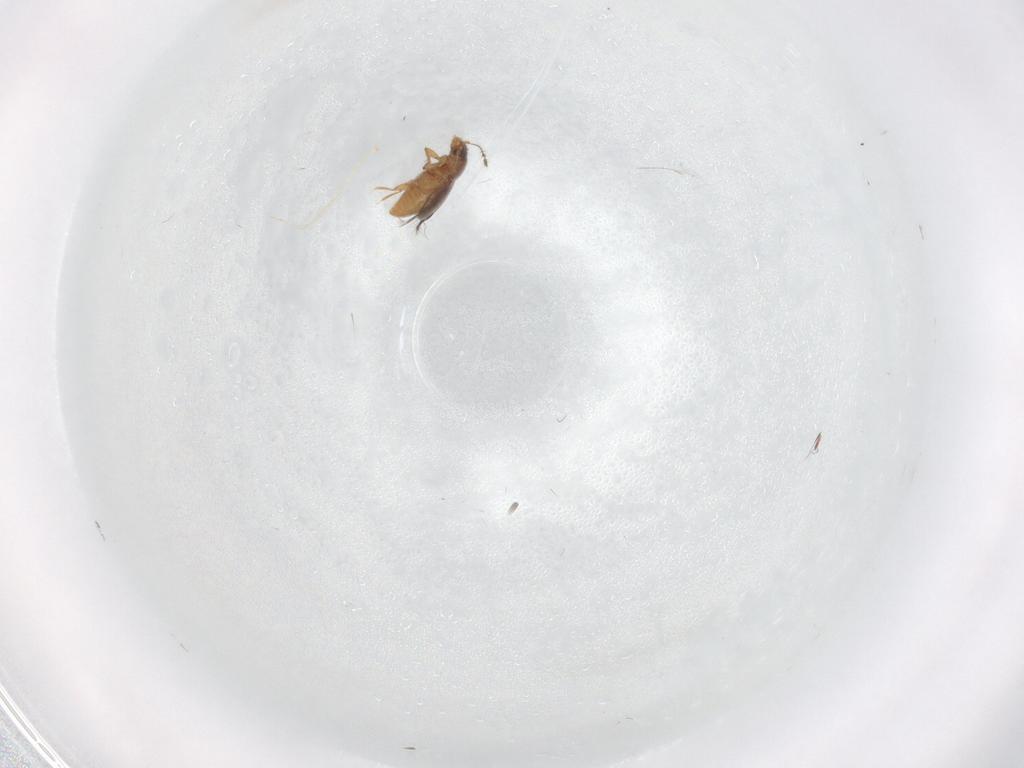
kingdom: Animalia
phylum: Arthropoda
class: Insecta
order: Coleoptera
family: Ptiliidae
